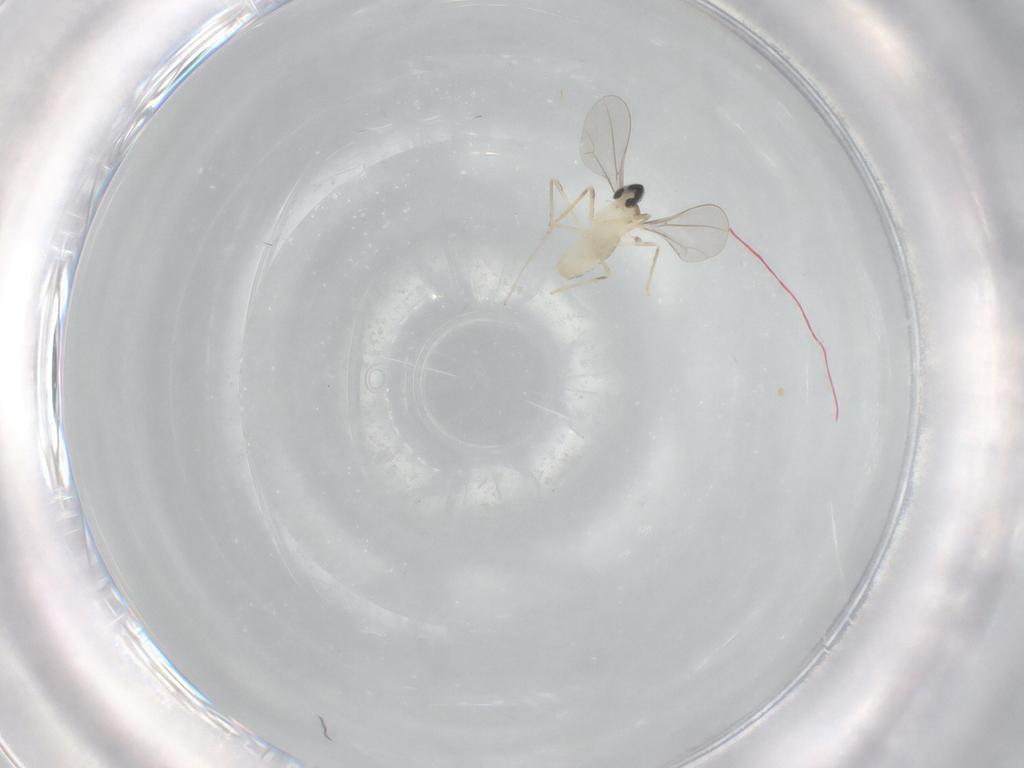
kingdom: Animalia
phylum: Arthropoda
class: Insecta
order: Diptera
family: Cecidomyiidae
